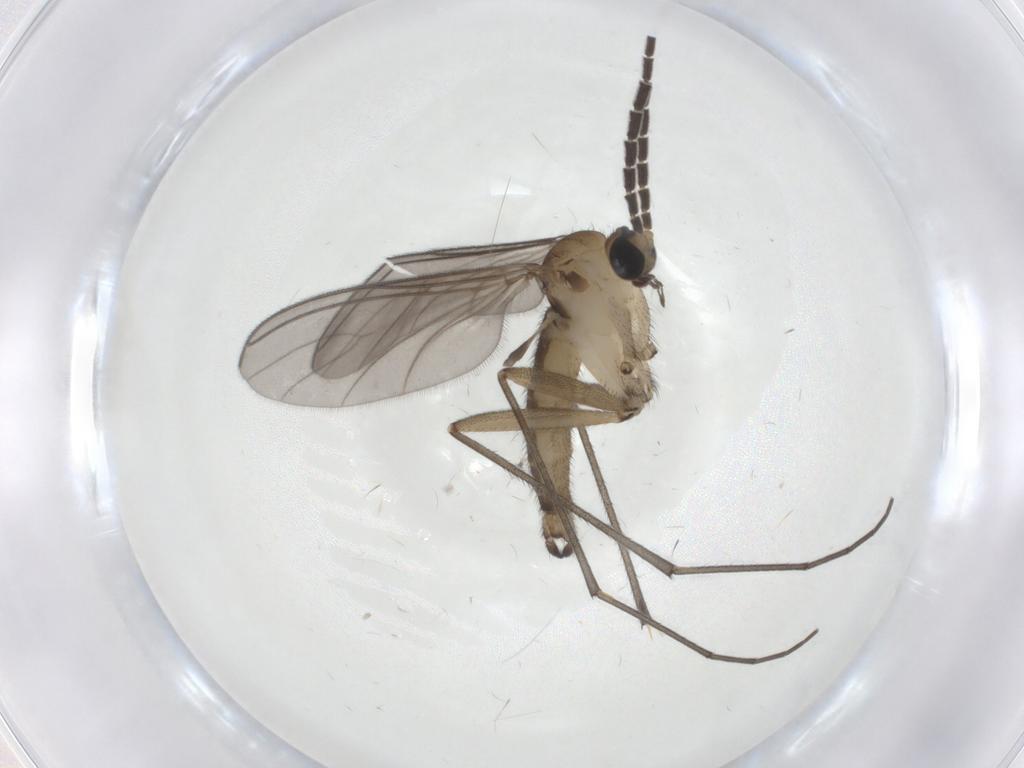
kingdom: Animalia
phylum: Arthropoda
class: Insecta
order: Diptera
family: Sciaridae
